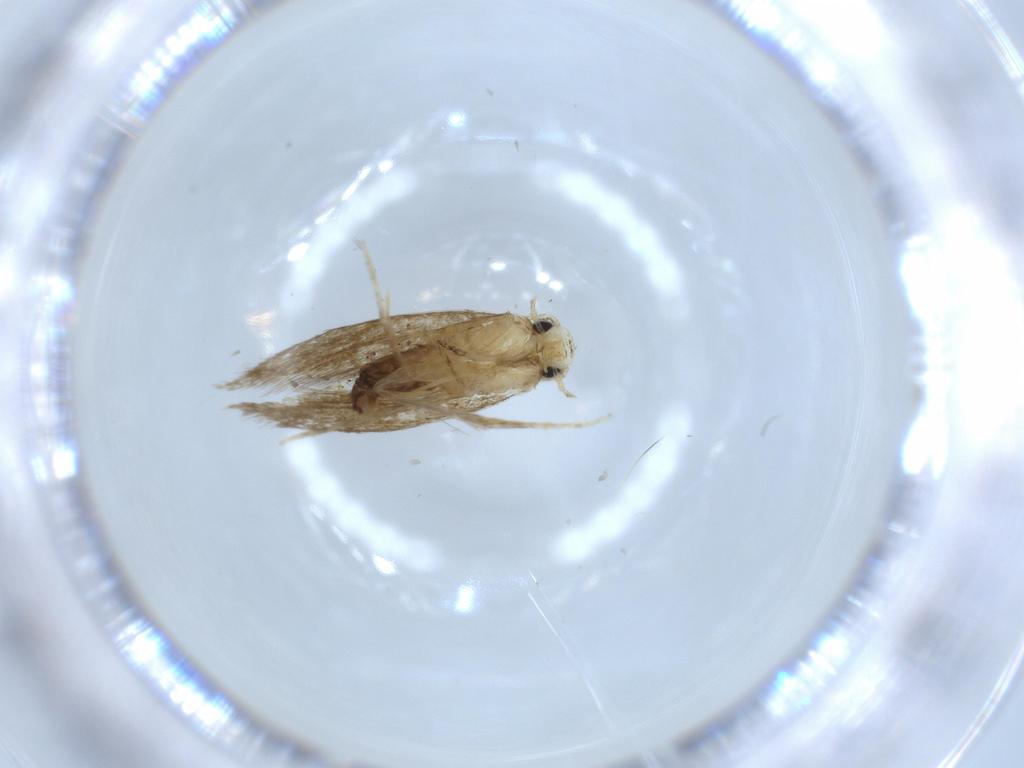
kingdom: Animalia
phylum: Arthropoda
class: Insecta
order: Lepidoptera
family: Tineidae
